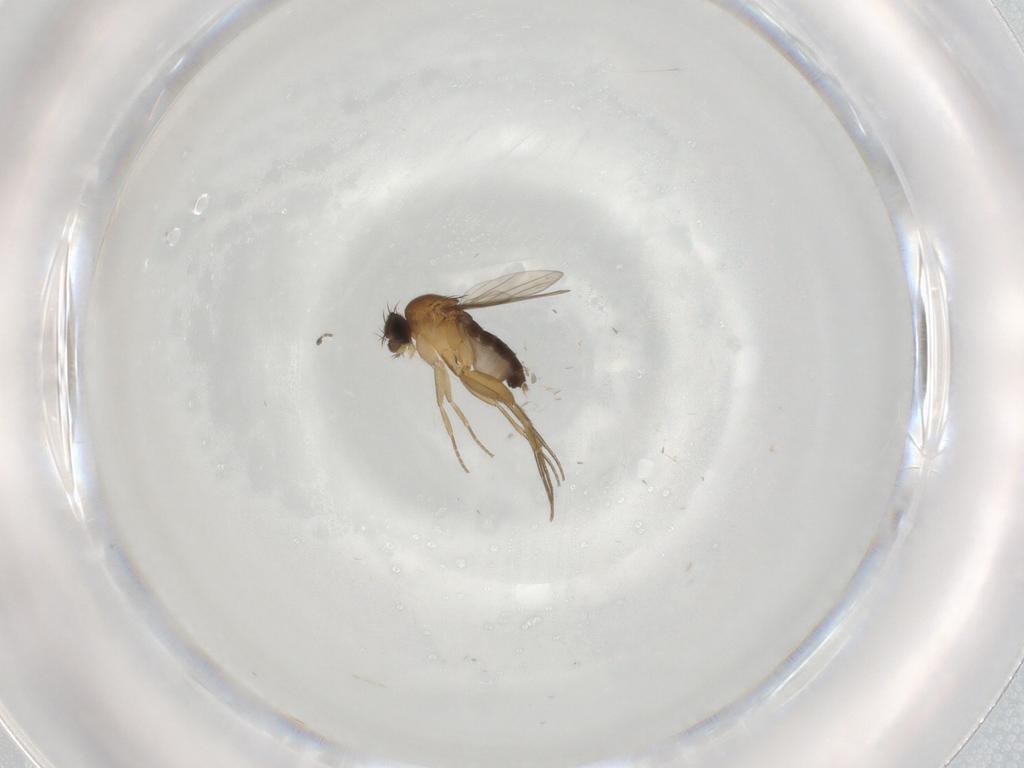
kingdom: Animalia
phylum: Arthropoda
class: Insecta
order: Diptera
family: Phoridae
